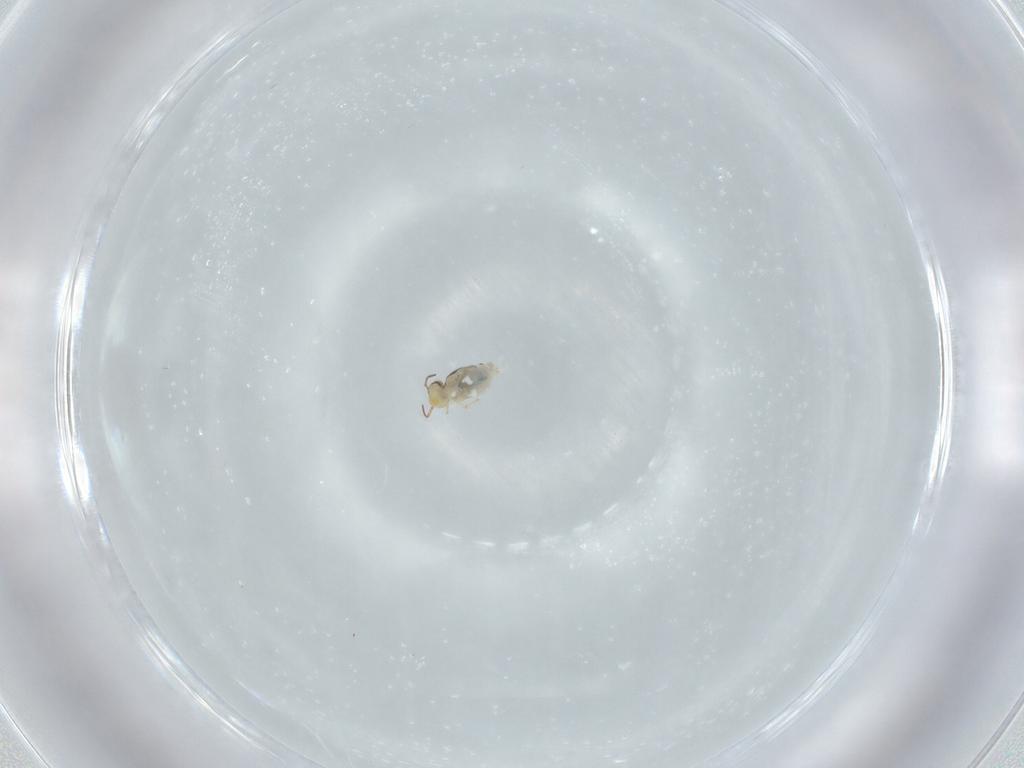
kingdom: Animalia
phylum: Arthropoda
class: Collembola
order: Symphypleona
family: Bourletiellidae
